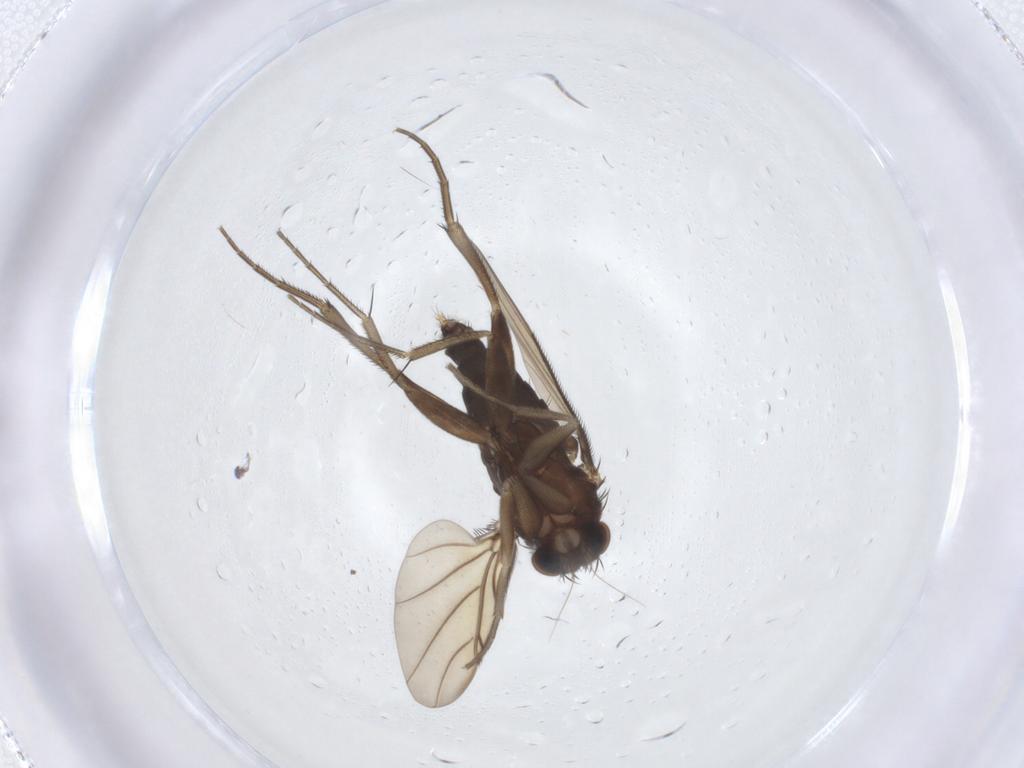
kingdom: Animalia
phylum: Arthropoda
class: Insecta
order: Diptera
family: Phoridae
